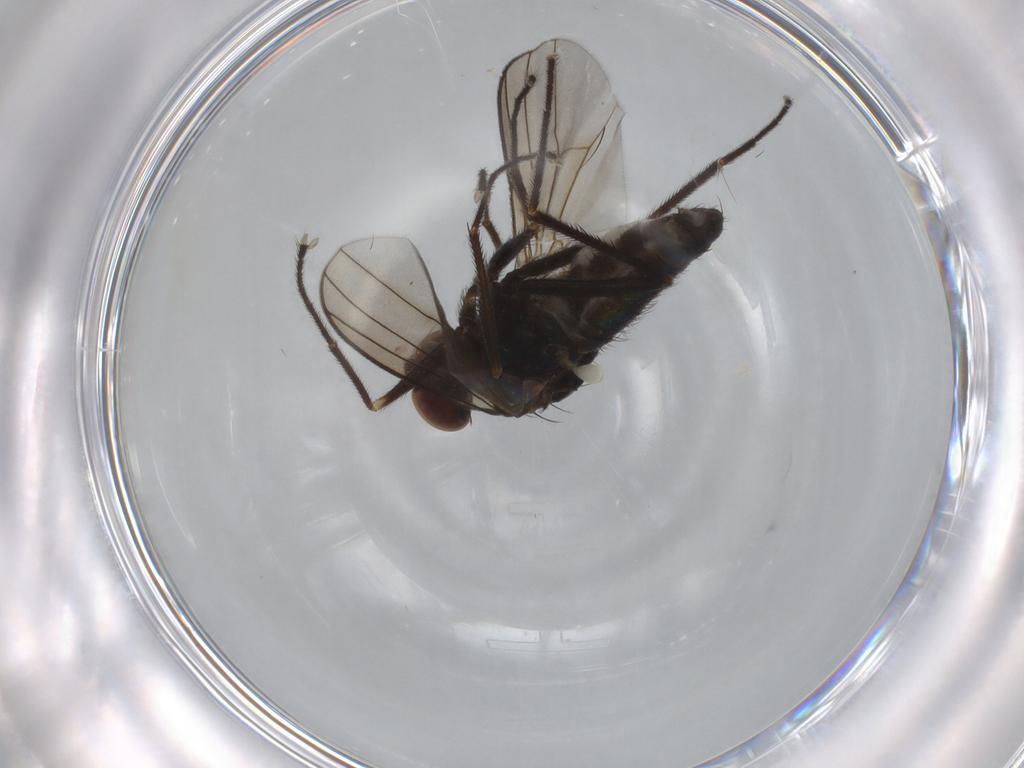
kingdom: Animalia
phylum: Arthropoda
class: Insecta
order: Diptera
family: Dolichopodidae
